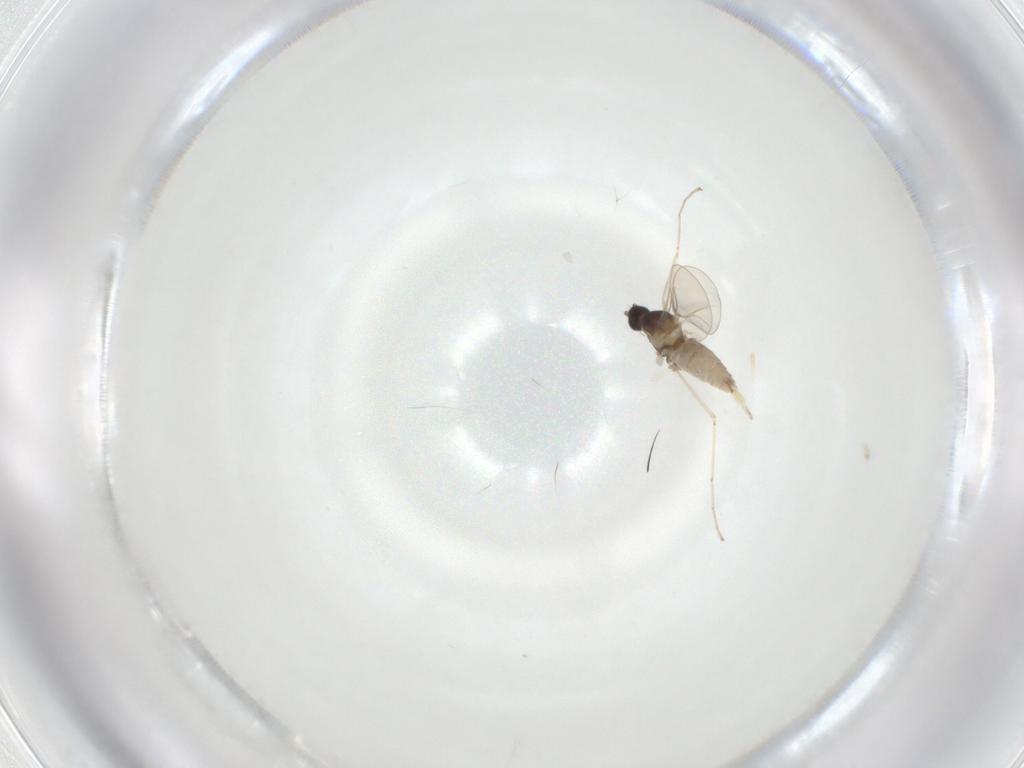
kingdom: Animalia
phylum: Arthropoda
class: Insecta
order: Diptera
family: Cecidomyiidae
